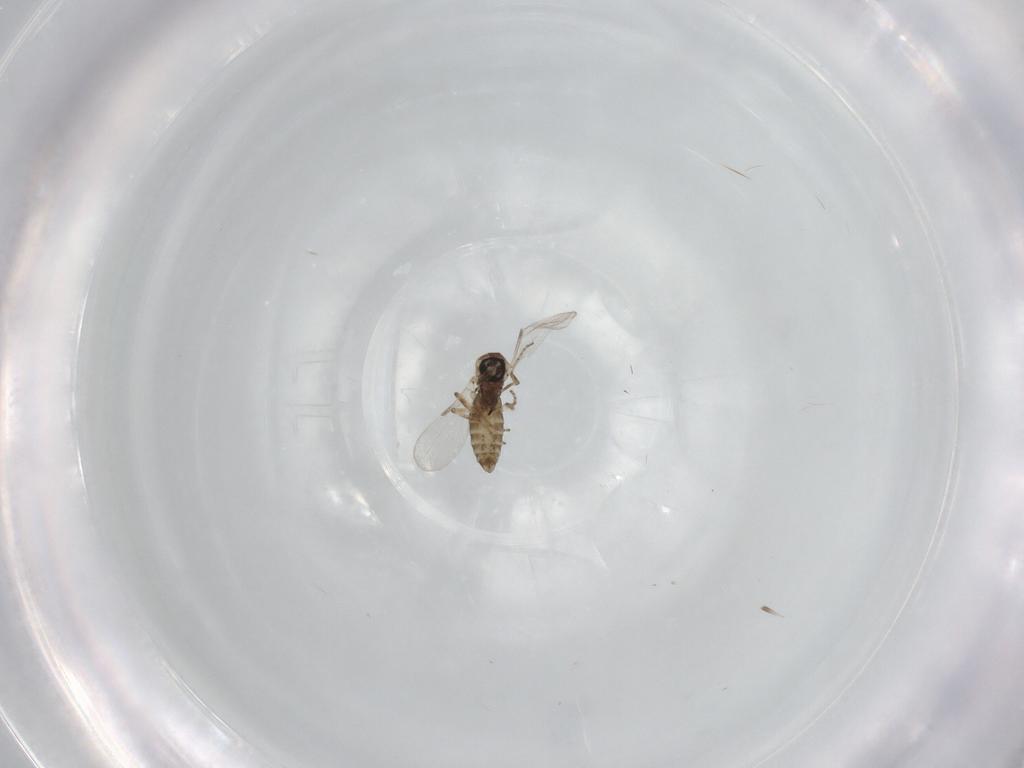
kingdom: Animalia
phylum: Arthropoda
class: Insecta
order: Diptera
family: Ceratopogonidae
